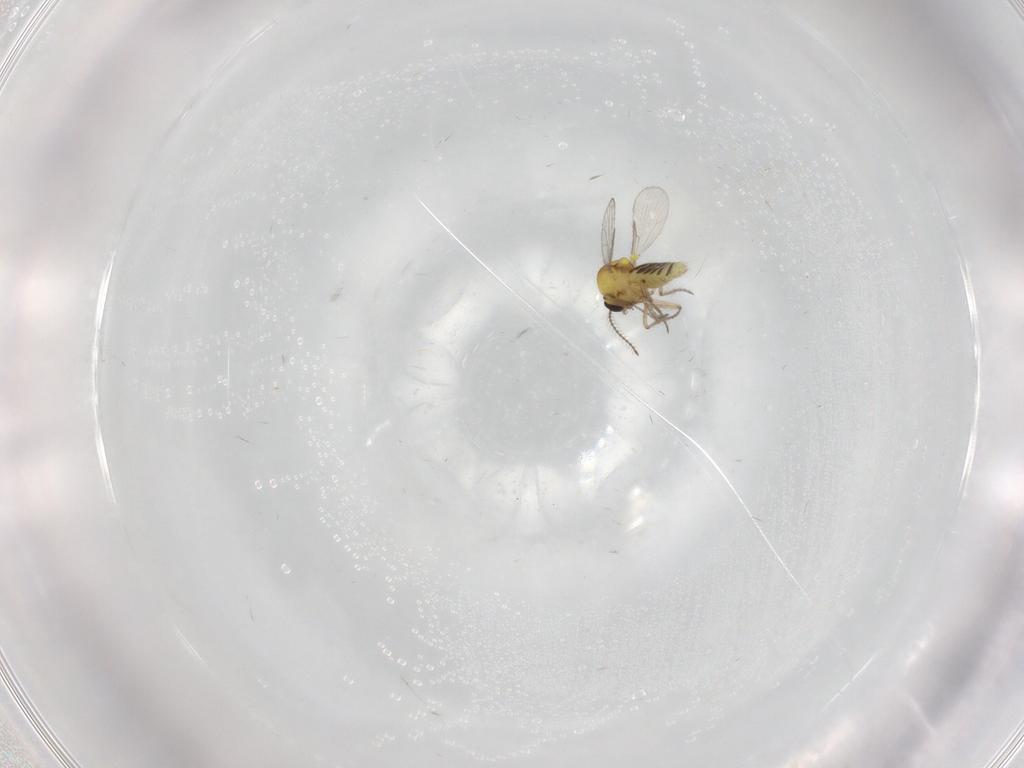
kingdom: Animalia
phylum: Arthropoda
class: Insecta
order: Diptera
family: Ceratopogonidae
